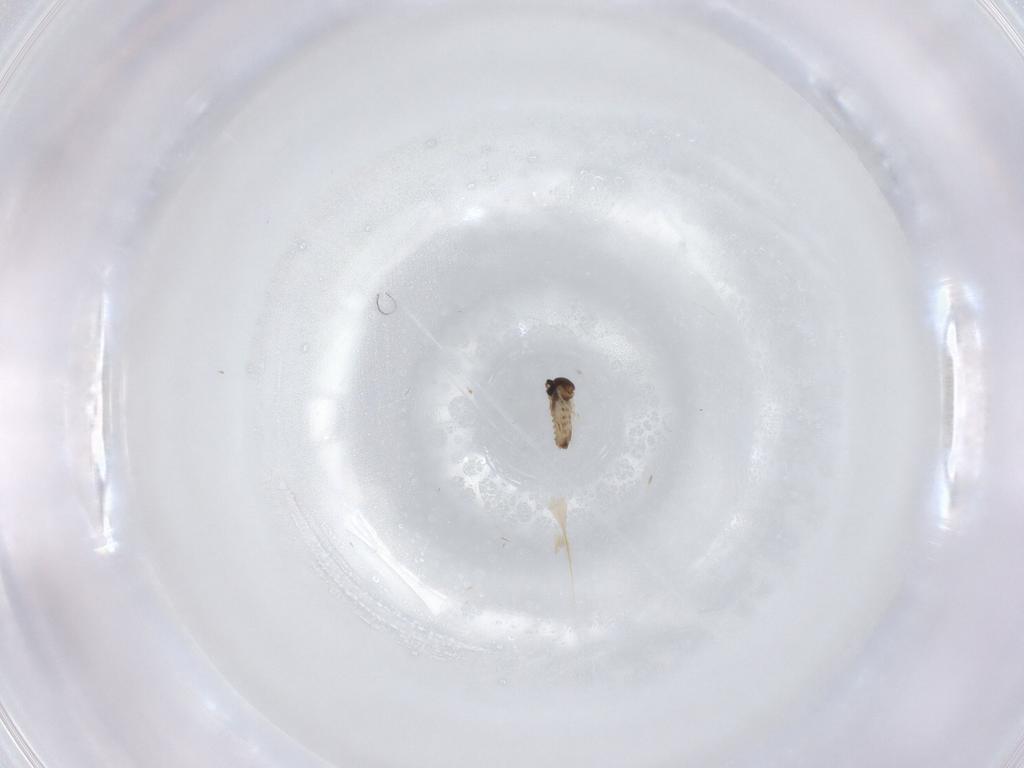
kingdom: Animalia
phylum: Arthropoda
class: Insecta
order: Diptera
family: Cecidomyiidae
